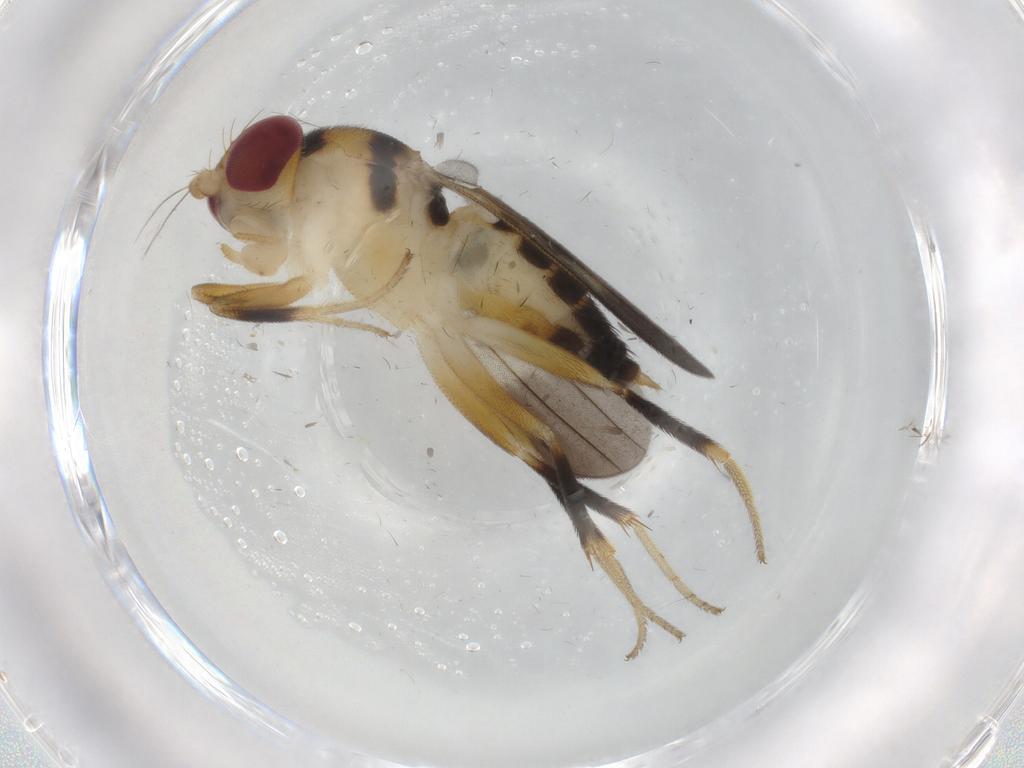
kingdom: Animalia
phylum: Arthropoda
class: Insecta
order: Diptera
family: Clusiidae
